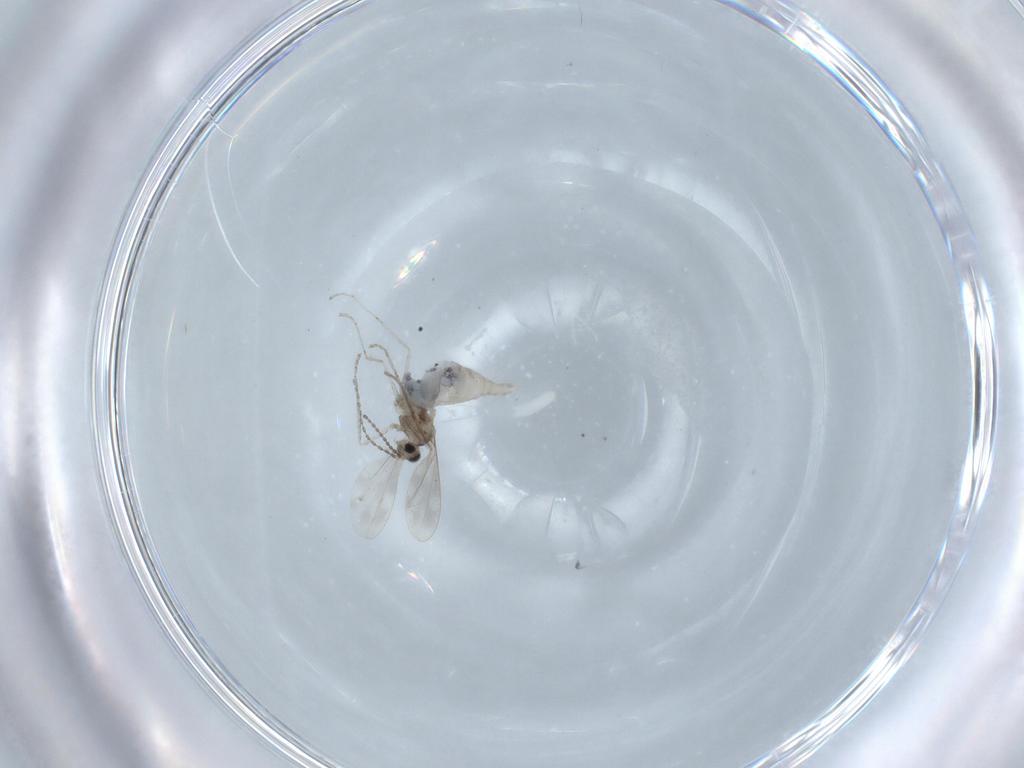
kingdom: Animalia
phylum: Arthropoda
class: Insecta
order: Diptera
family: Cecidomyiidae
